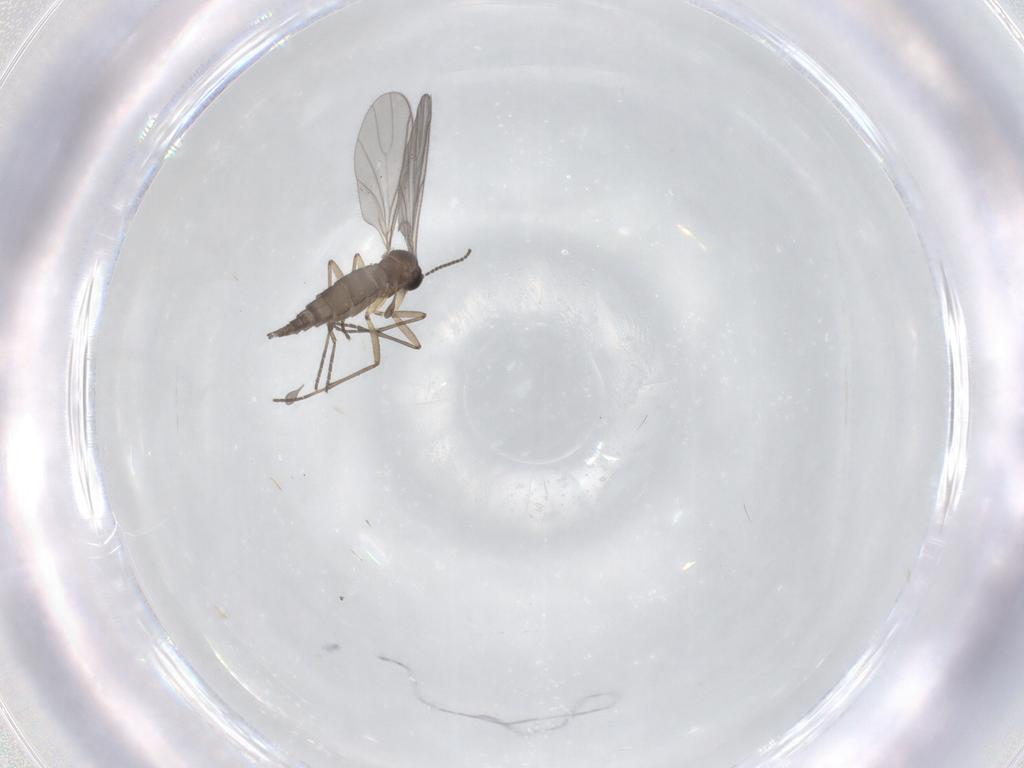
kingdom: Animalia
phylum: Arthropoda
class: Insecta
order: Diptera
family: Sciaridae
